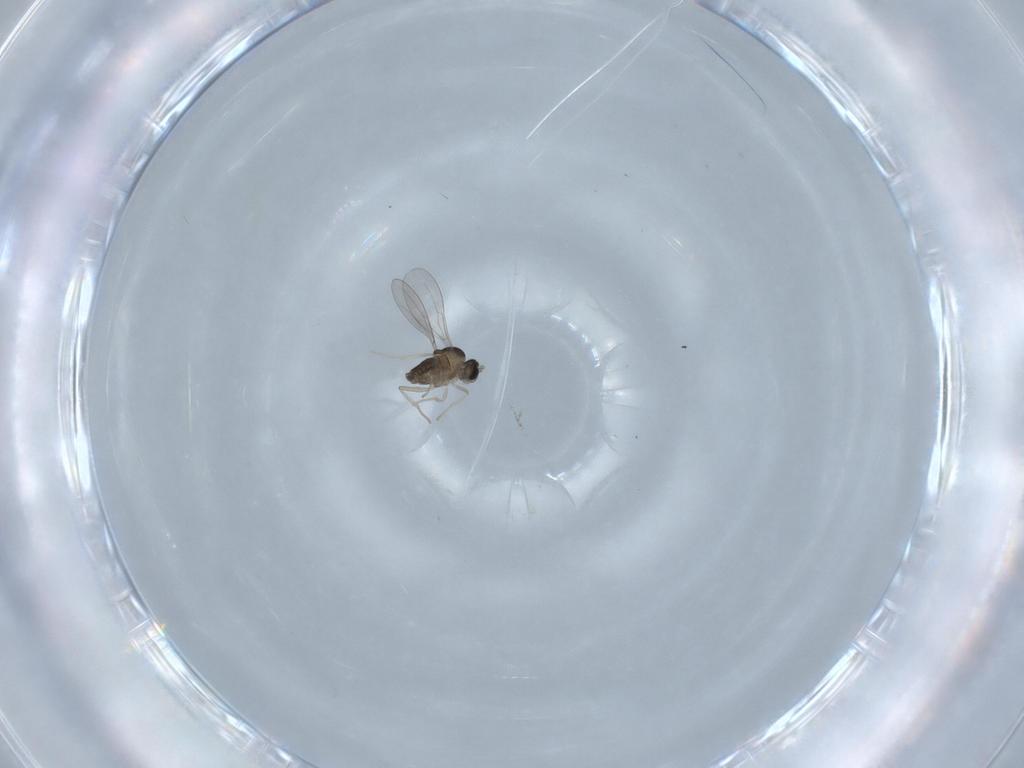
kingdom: Animalia
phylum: Arthropoda
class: Insecta
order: Diptera
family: Cecidomyiidae
